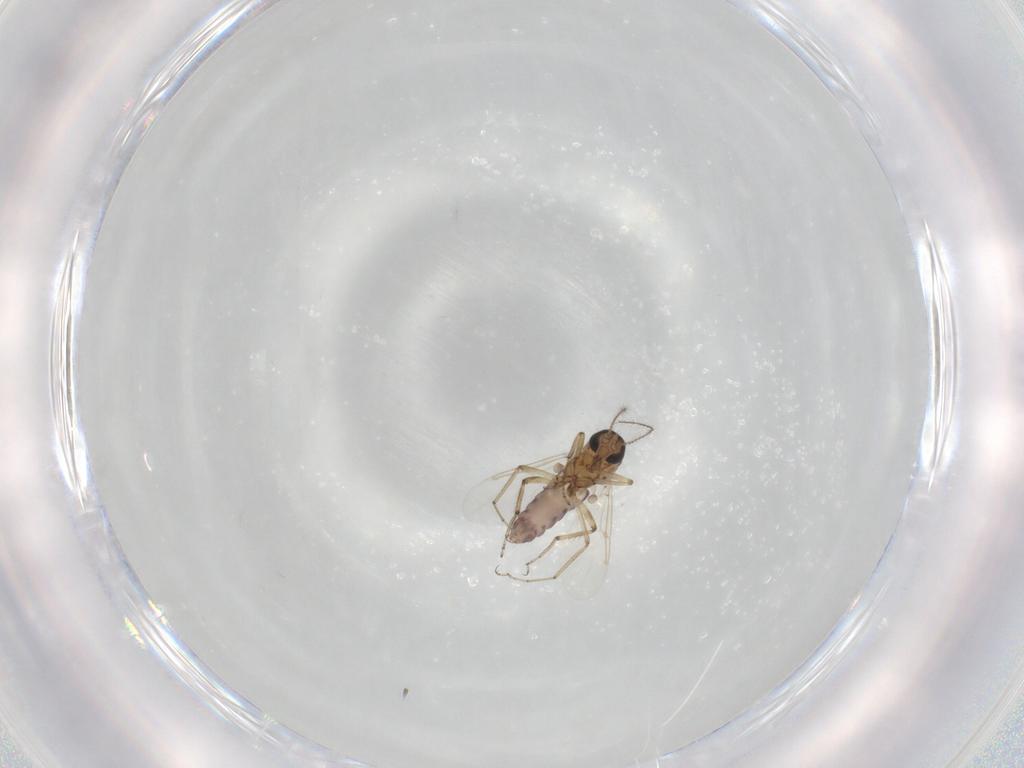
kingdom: Animalia
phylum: Arthropoda
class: Insecta
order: Diptera
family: Ceratopogonidae
